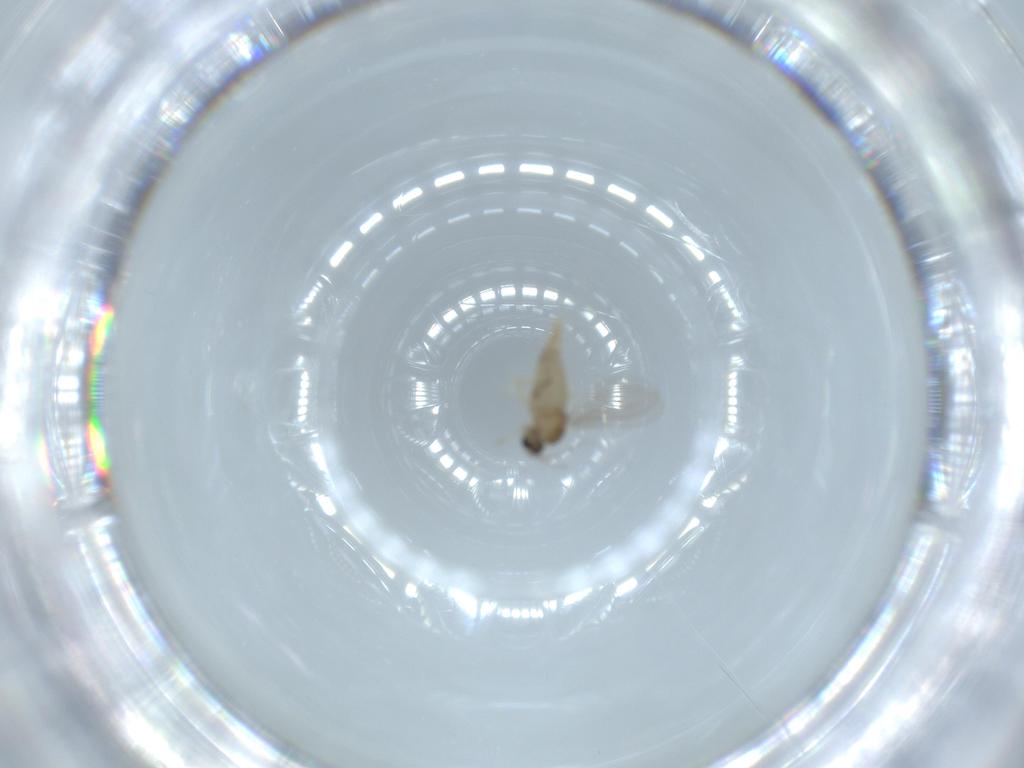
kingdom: Animalia
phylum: Arthropoda
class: Insecta
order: Diptera
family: Cecidomyiidae
